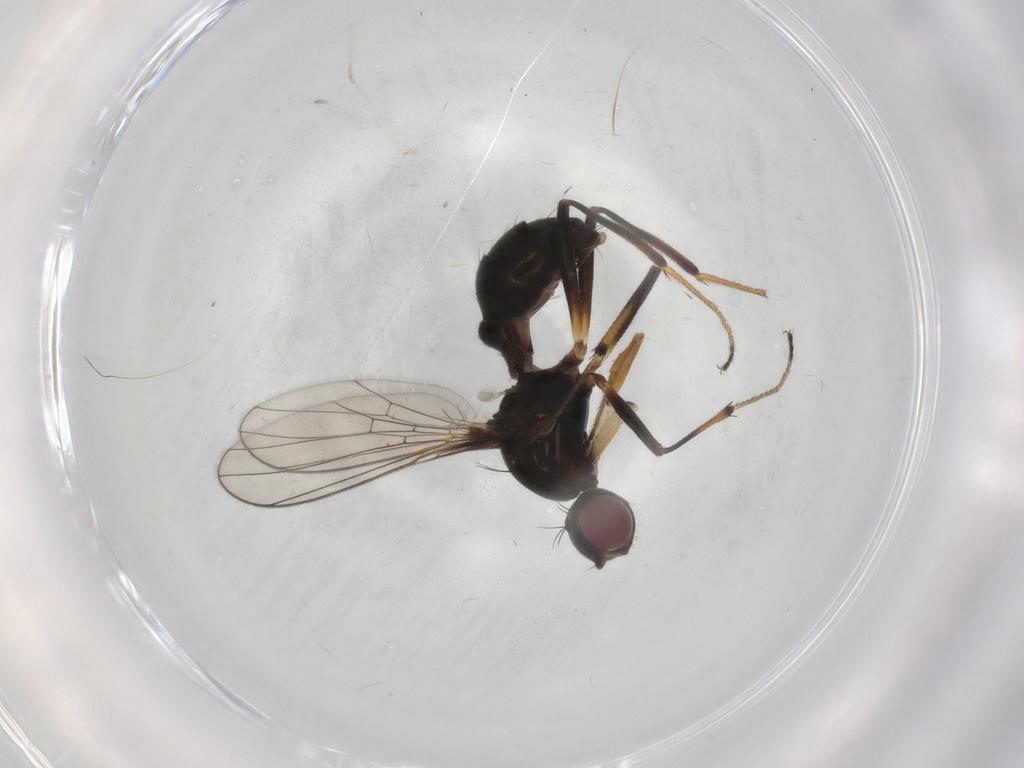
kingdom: Animalia
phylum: Arthropoda
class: Insecta
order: Diptera
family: Sepsidae
